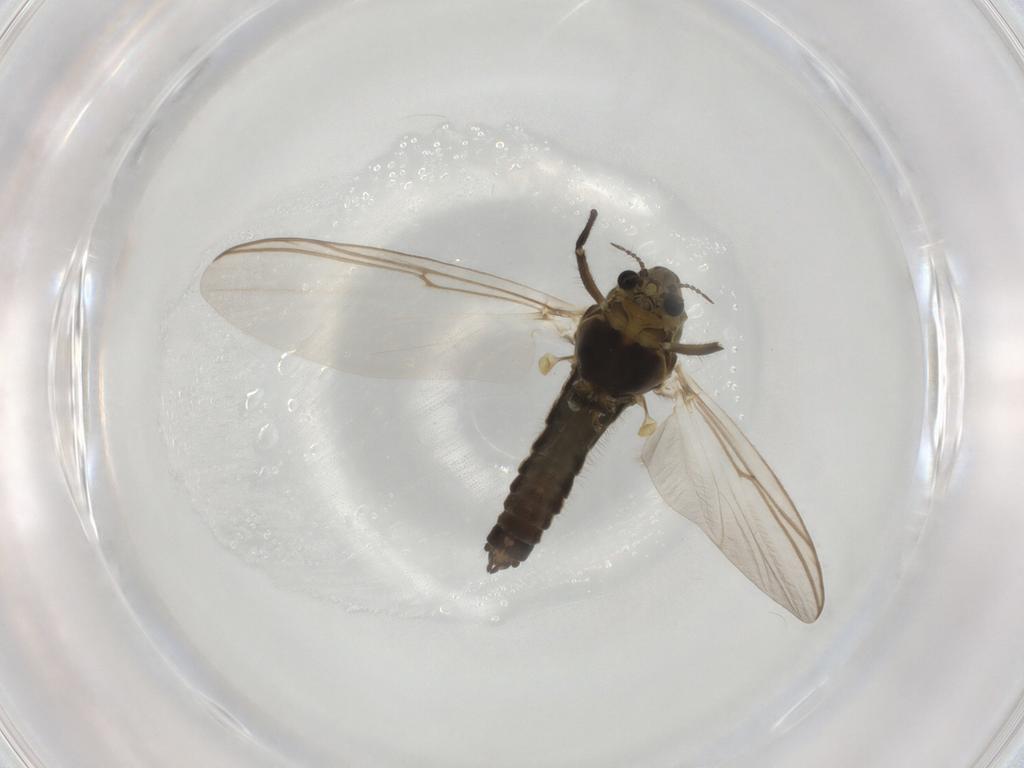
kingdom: Animalia
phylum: Arthropoda
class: Insecta
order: Diptera
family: Chironomidae
